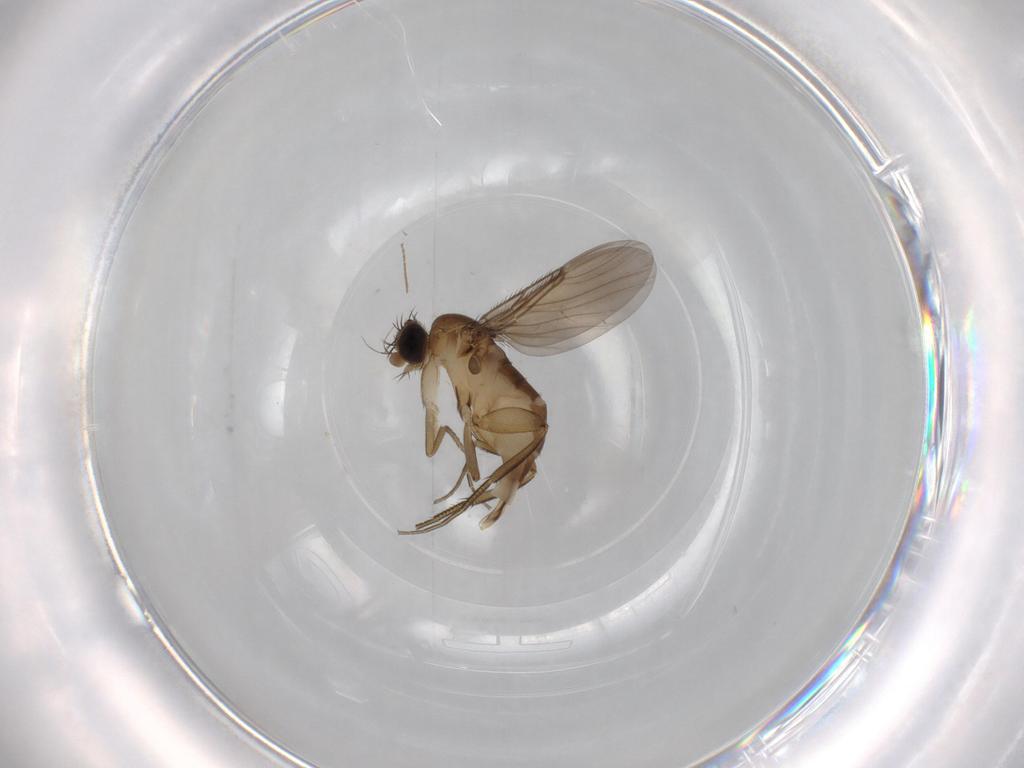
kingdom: Animalia
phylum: Arthropoda
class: Insecta
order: Diptera
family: Phoridae
